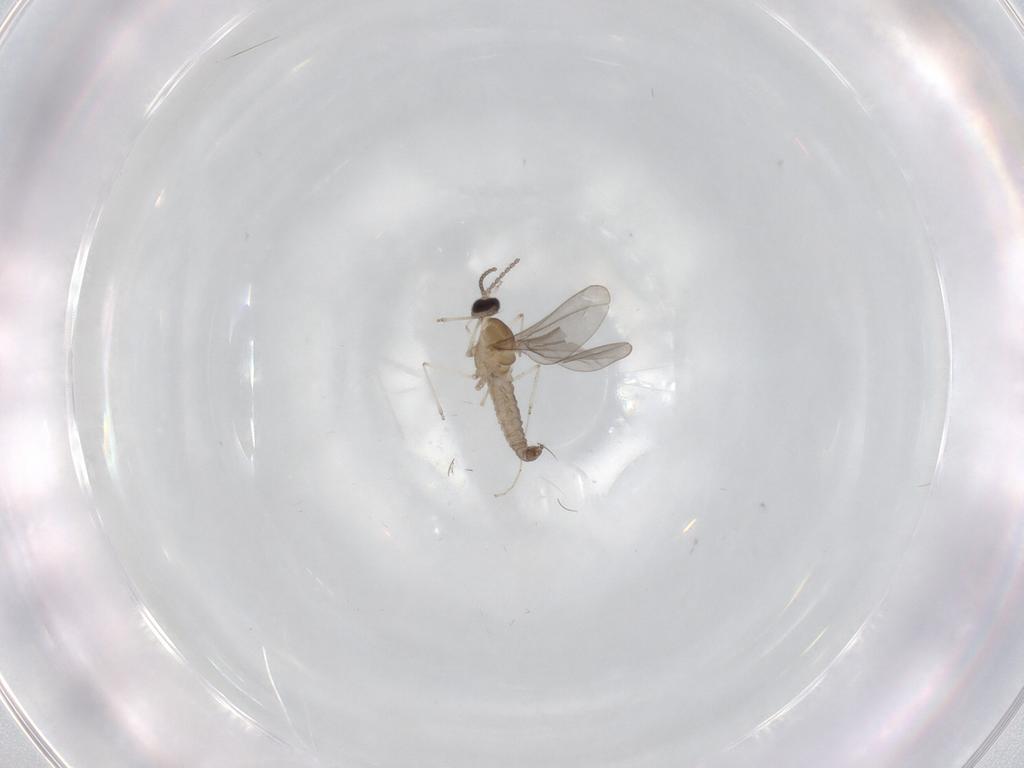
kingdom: Animalia
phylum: Arthropoda
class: Insecta
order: Diptera
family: Cecidomyiidae
